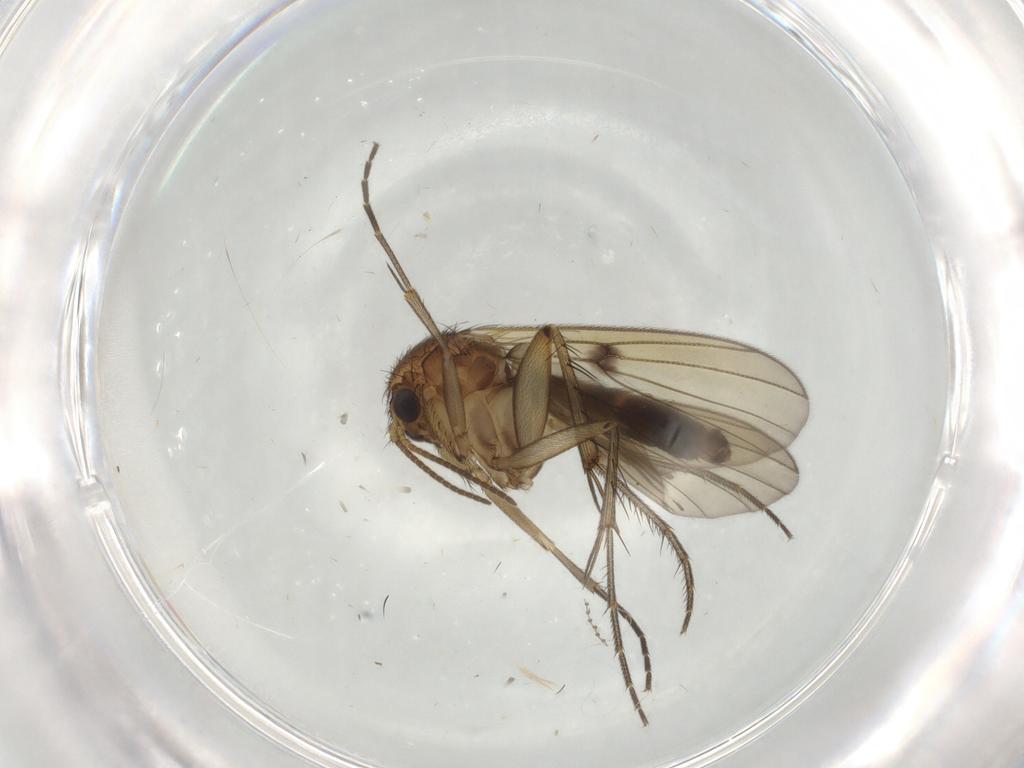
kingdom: Animalia
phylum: Arthropoda
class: Insecta
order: Diptera
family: Mycetophilidae
